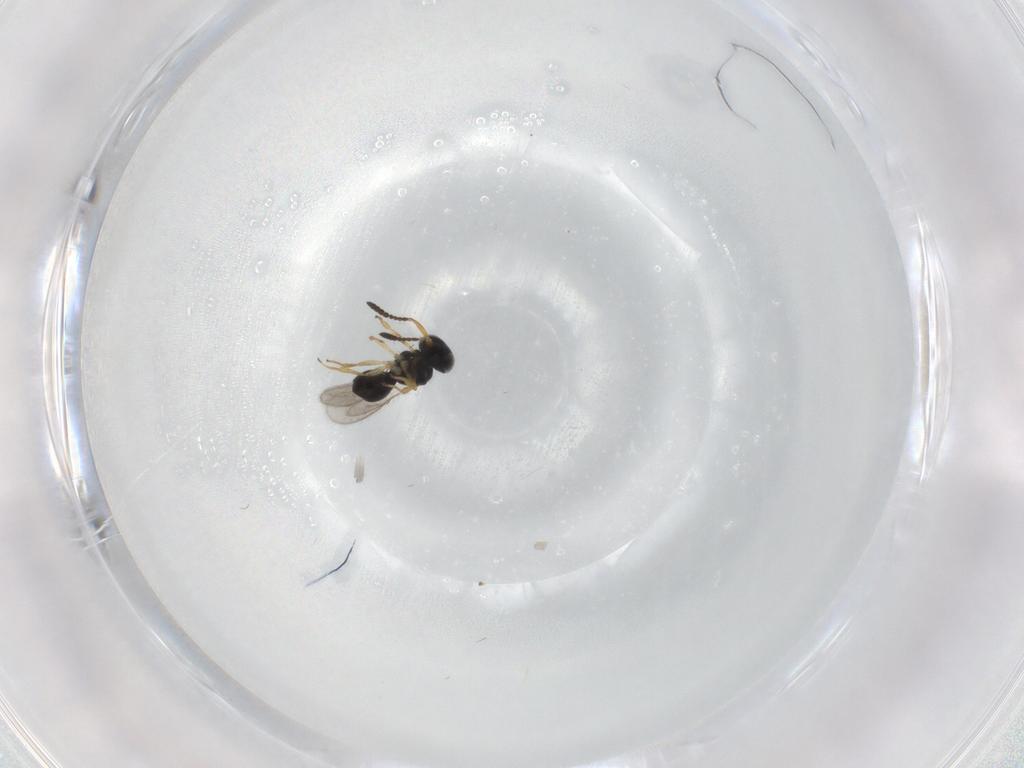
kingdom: Animalia
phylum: Arthropoda
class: Insecta
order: Hymenoptera
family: Scelionidae
